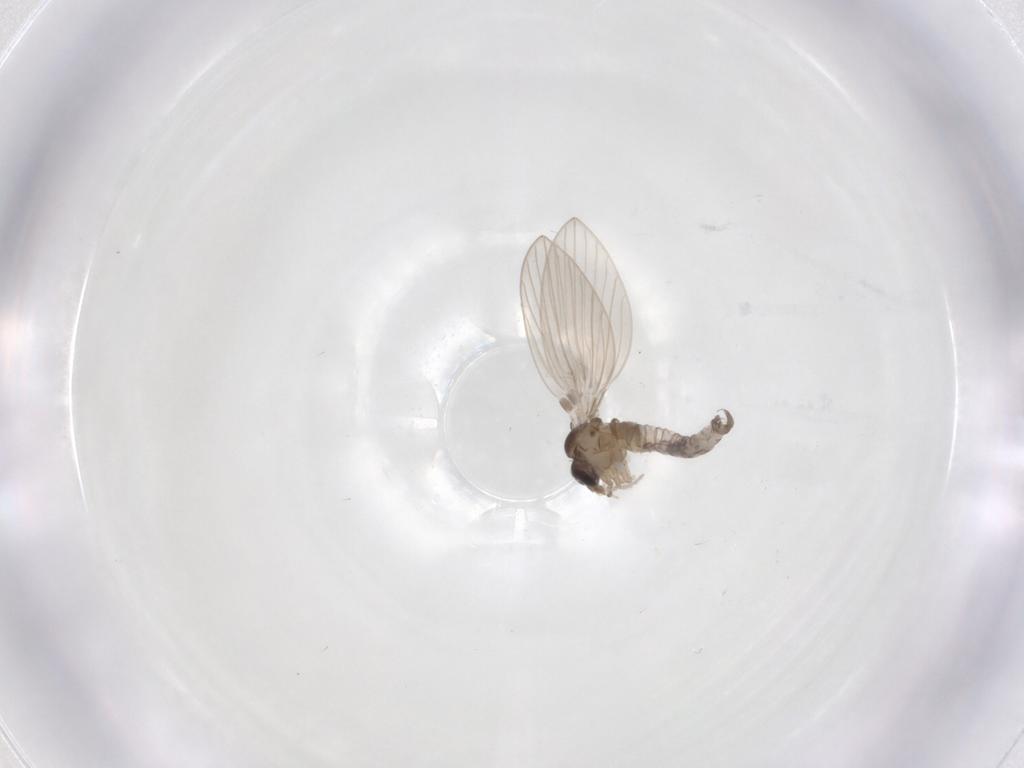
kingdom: Animalia
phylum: Arthropoda
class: Insecta
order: Diptera
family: Psychodidae
